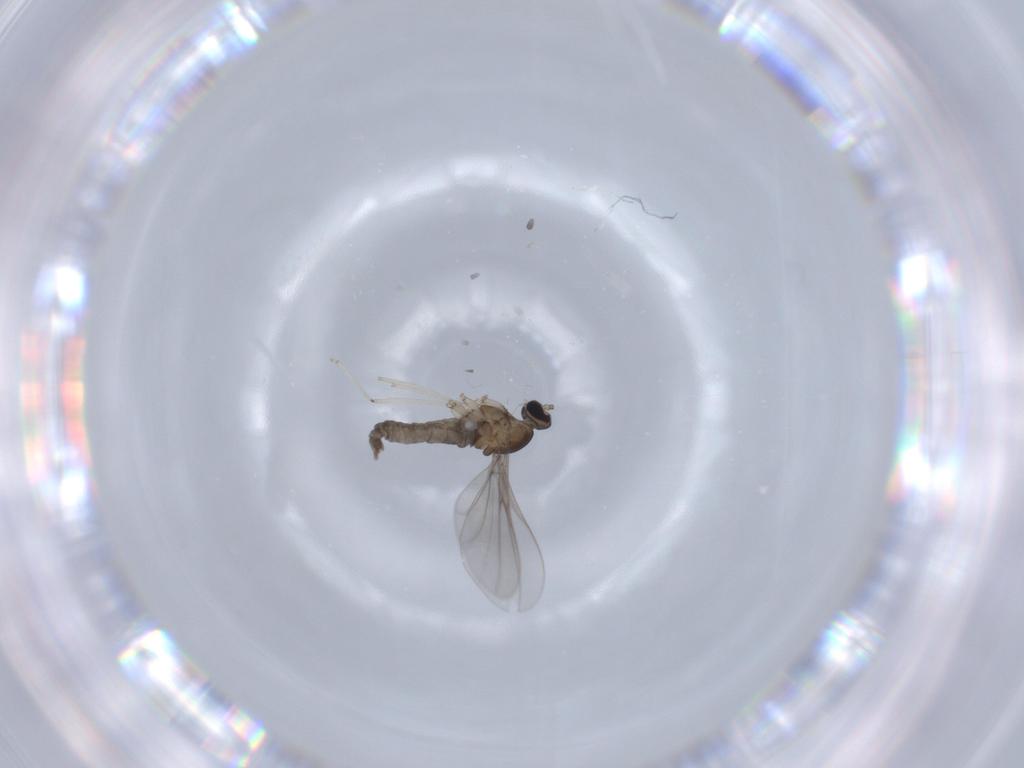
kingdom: Animalia
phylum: Arthropoda
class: Insecta
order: Diptera
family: Cecidomyiidae
